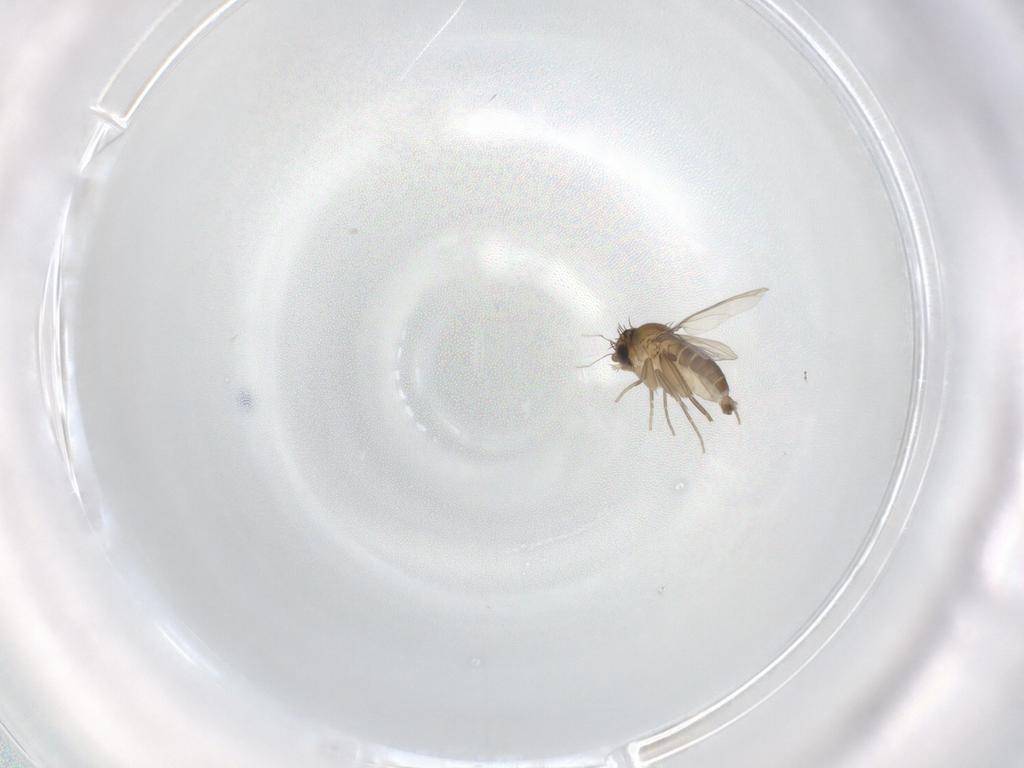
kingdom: Animalia
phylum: Arthropoda
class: Insecta
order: Diptera
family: Phoridae
